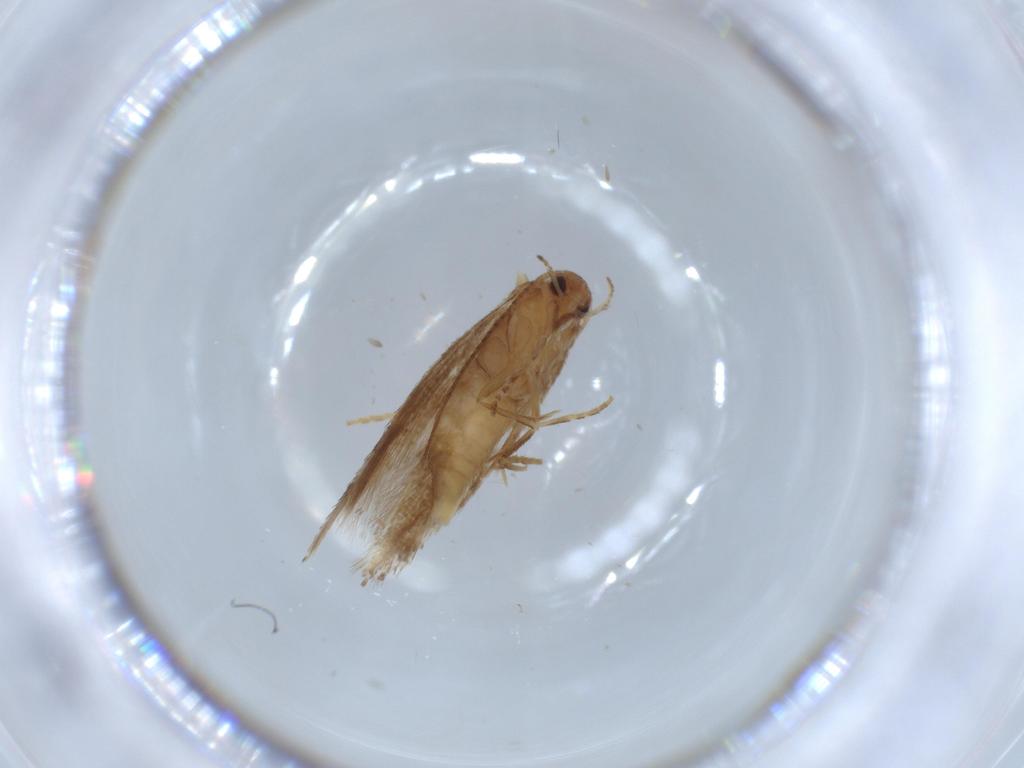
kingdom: Animalia
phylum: Arthropoda
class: Insecta
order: Lepidoptera
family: Elachistidae
